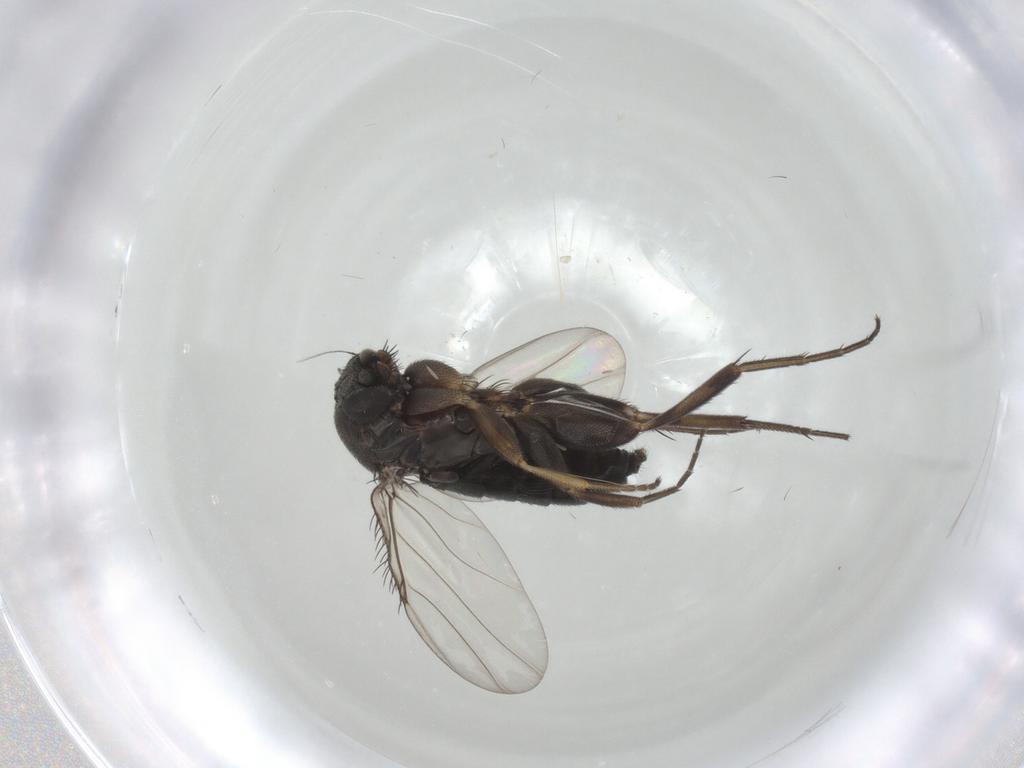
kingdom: Animalia
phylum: Arthropoda
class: Insecta
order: Diptera
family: Phoridae
